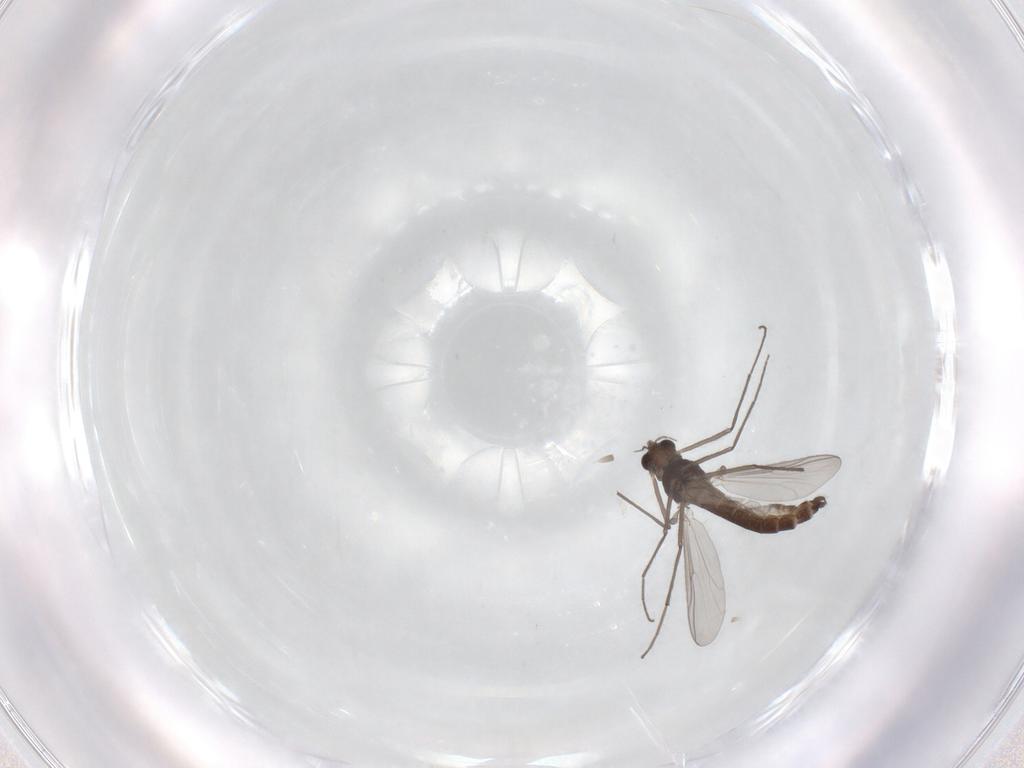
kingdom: Animalia
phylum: Arthropoda
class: Insecta
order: Diptera
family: Chironomidae
